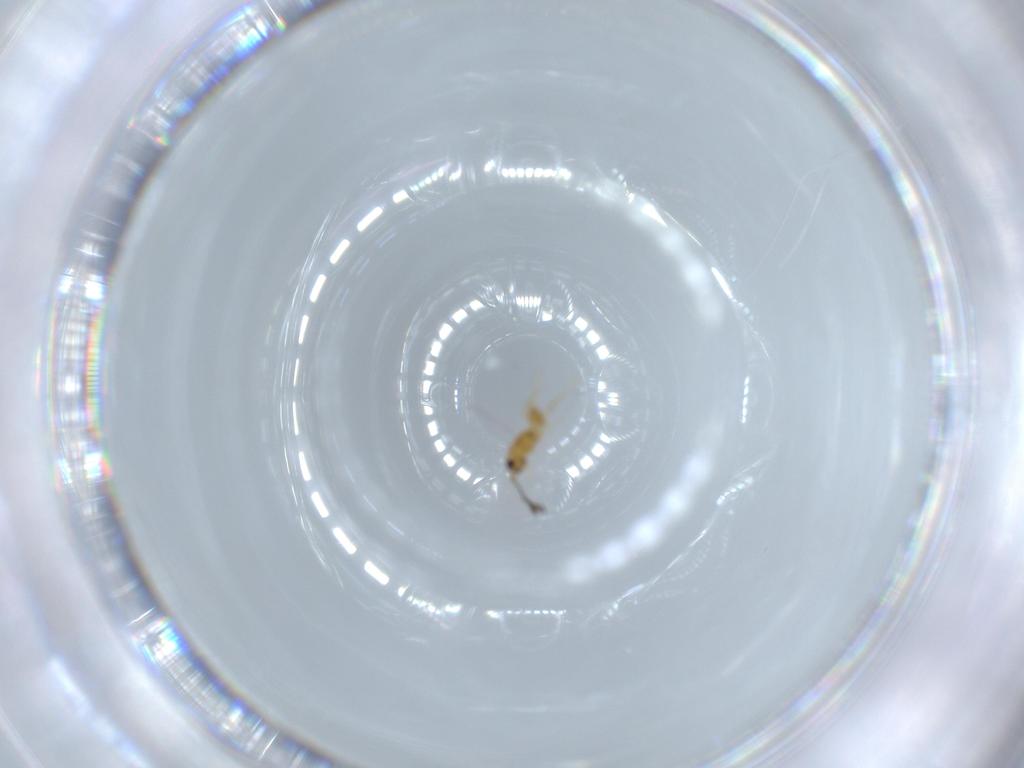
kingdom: Animalia
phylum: Arthropoda
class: Insecta
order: Hymenoptera
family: Mymaridae
